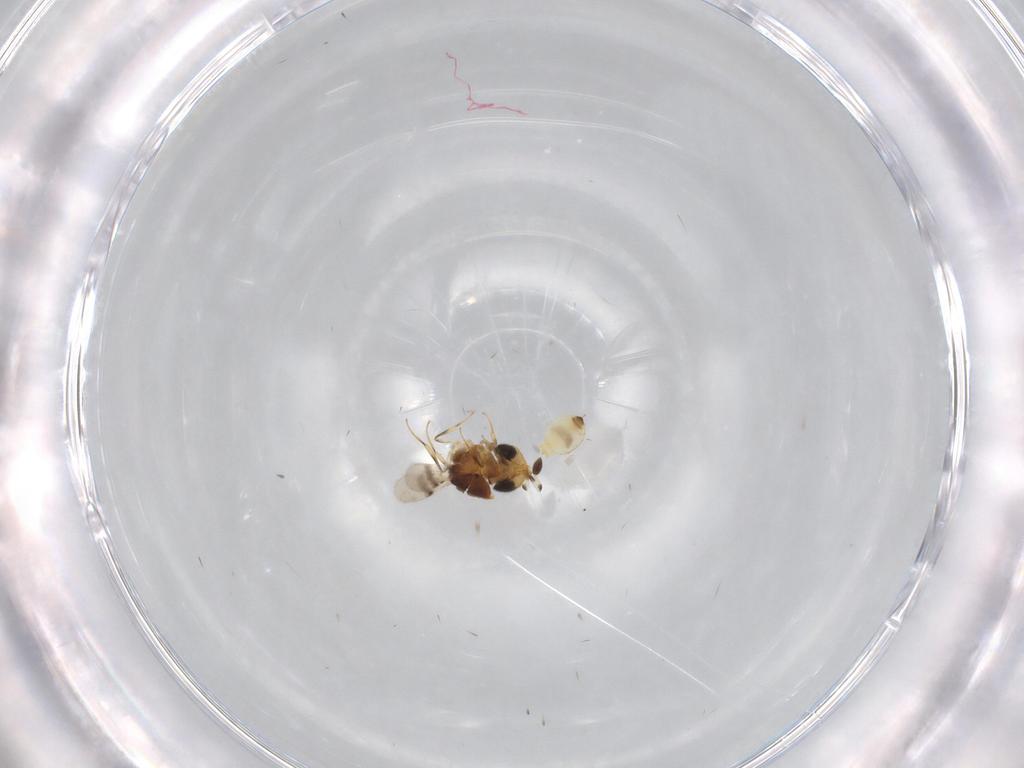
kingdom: Animalia
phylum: Arthropoda
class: Arachnida
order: Araneae
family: Pholcidae
